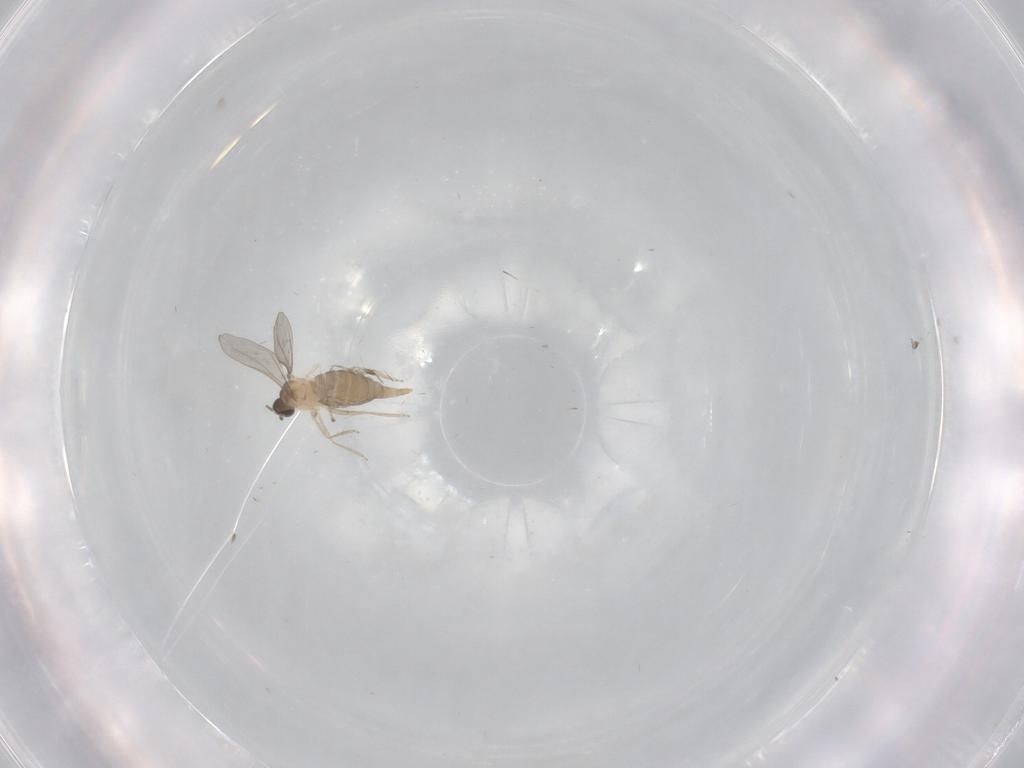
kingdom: Animalia
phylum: Arthropoda
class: Insecta
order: Diptera
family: Cecidomyiidae
